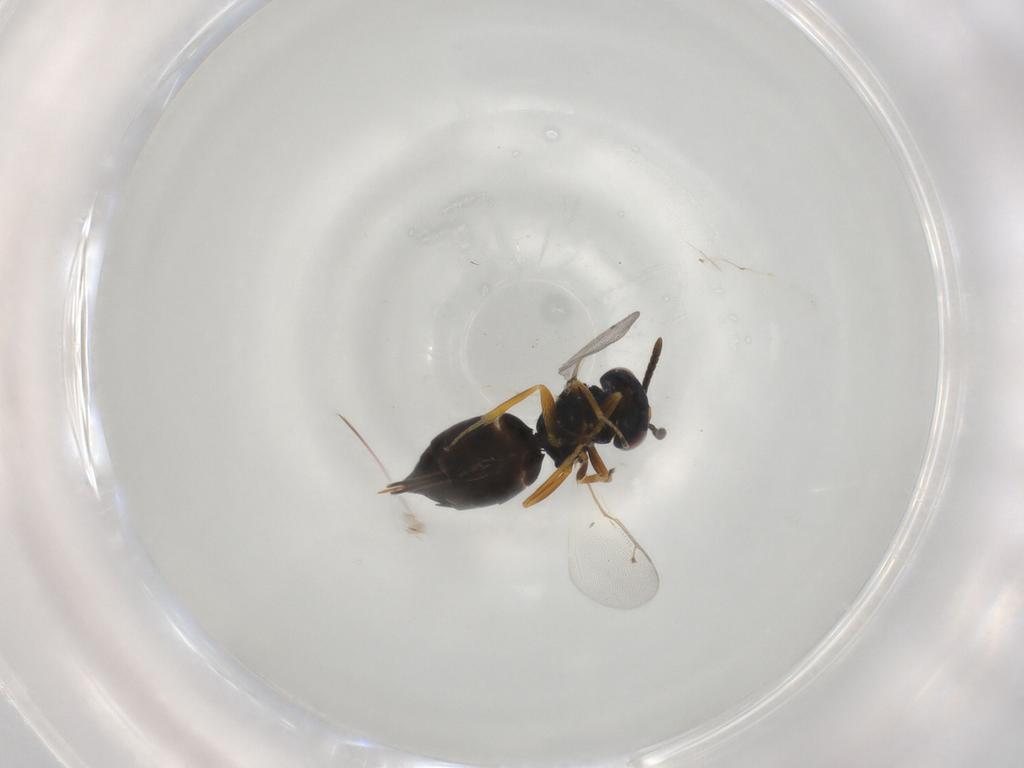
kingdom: Animalia
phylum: Arthropoda
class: Insecta
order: Hymenoptera
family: Pteromalidae
